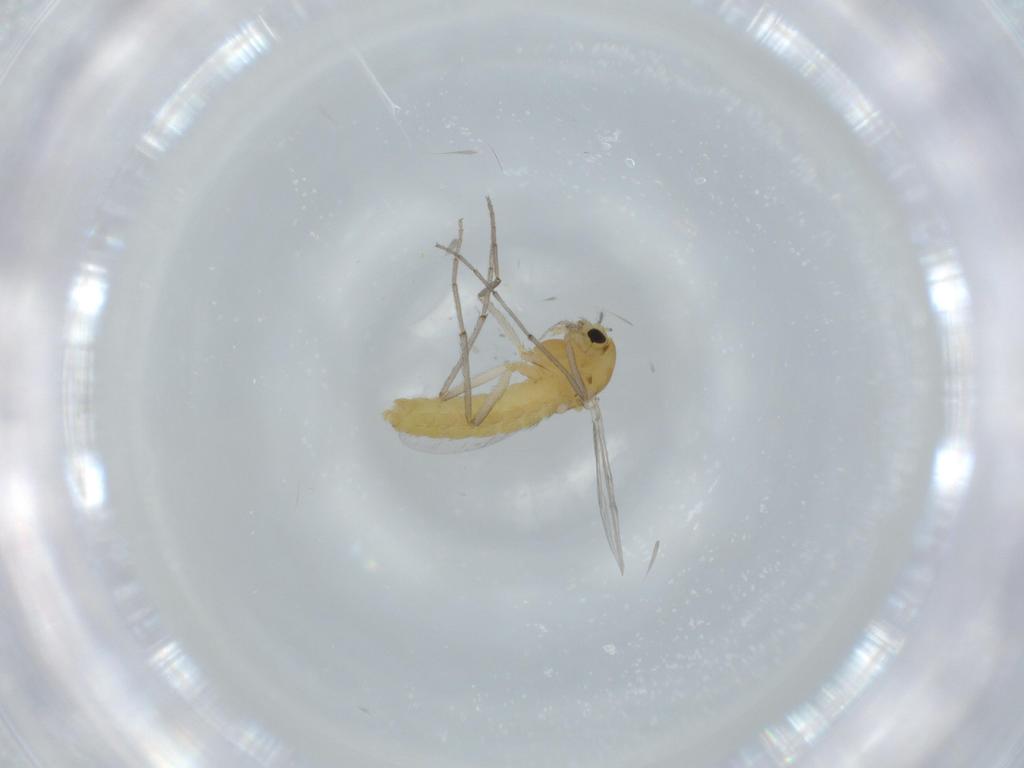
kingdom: Animalia
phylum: Arthropoda
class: Insecta
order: Diptera
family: Chironomidae
